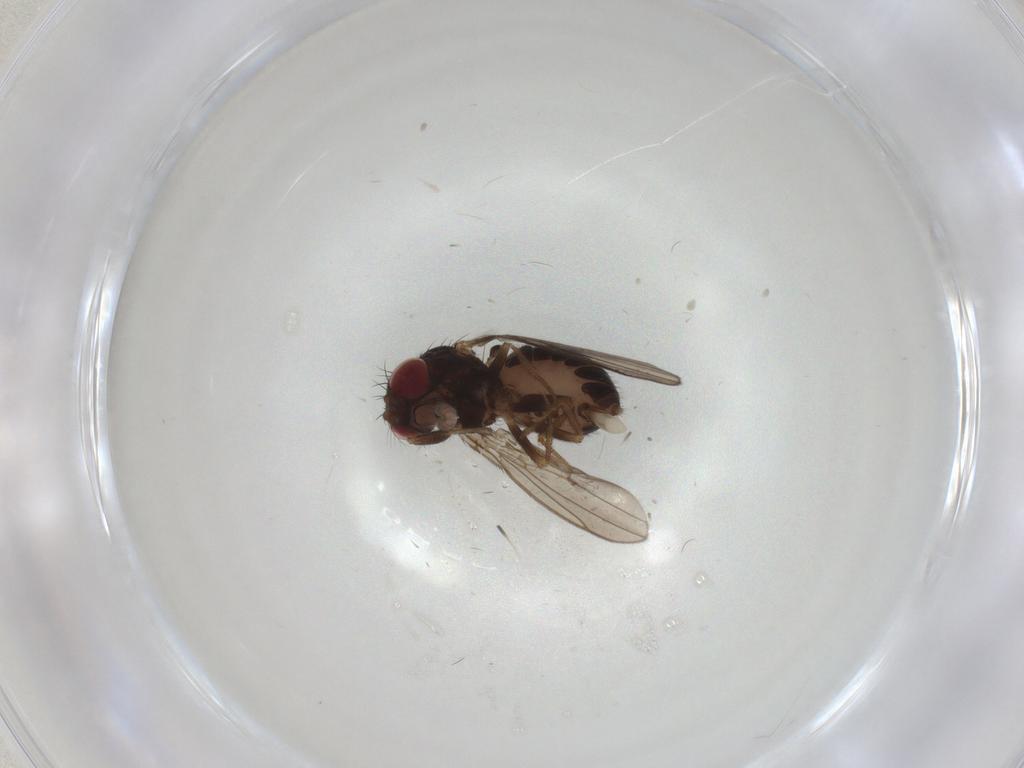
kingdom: Animalia
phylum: Arthropoda
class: Insecta
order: Diptera
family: Drosophilidae
